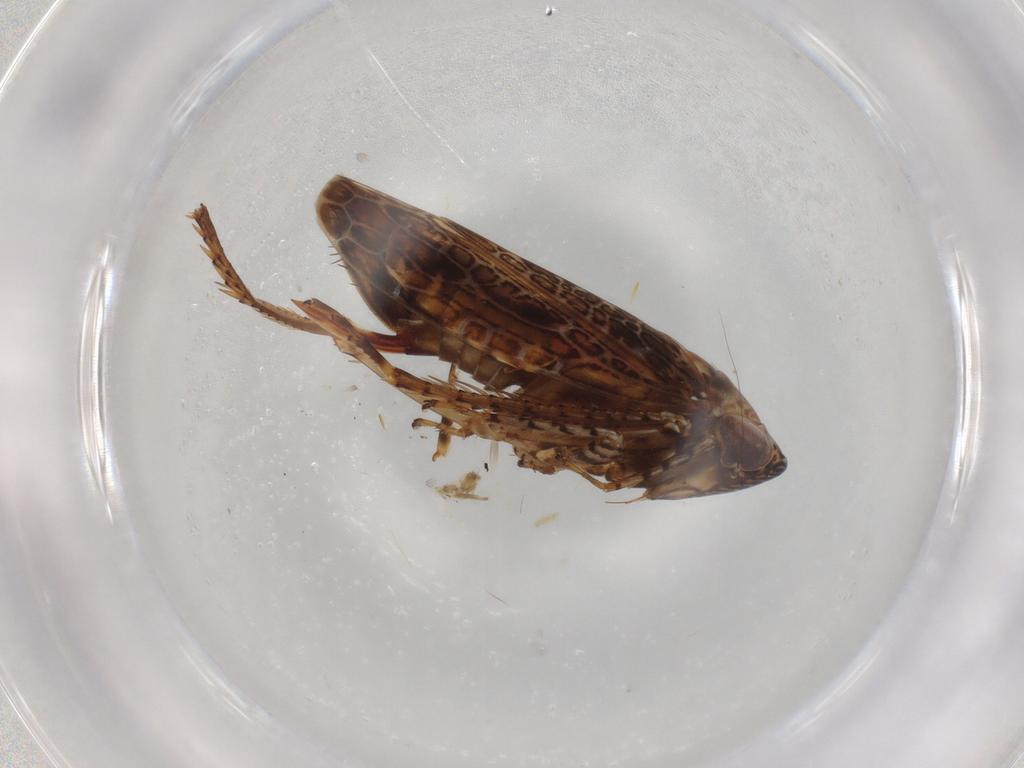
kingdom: Animalia
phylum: Arthropoda
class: Insecta
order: Hemiptera
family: Cicadellidae
